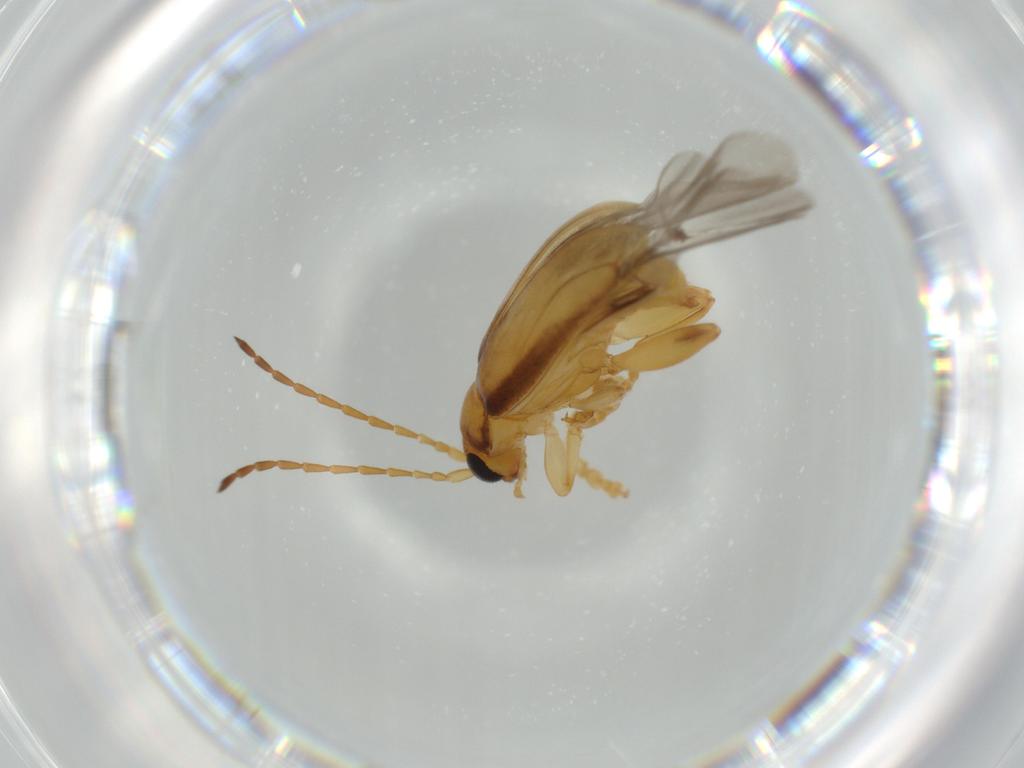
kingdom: Animalia
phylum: Arthropoda
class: Insecta
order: Coleoptera
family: Chrysomelidae
